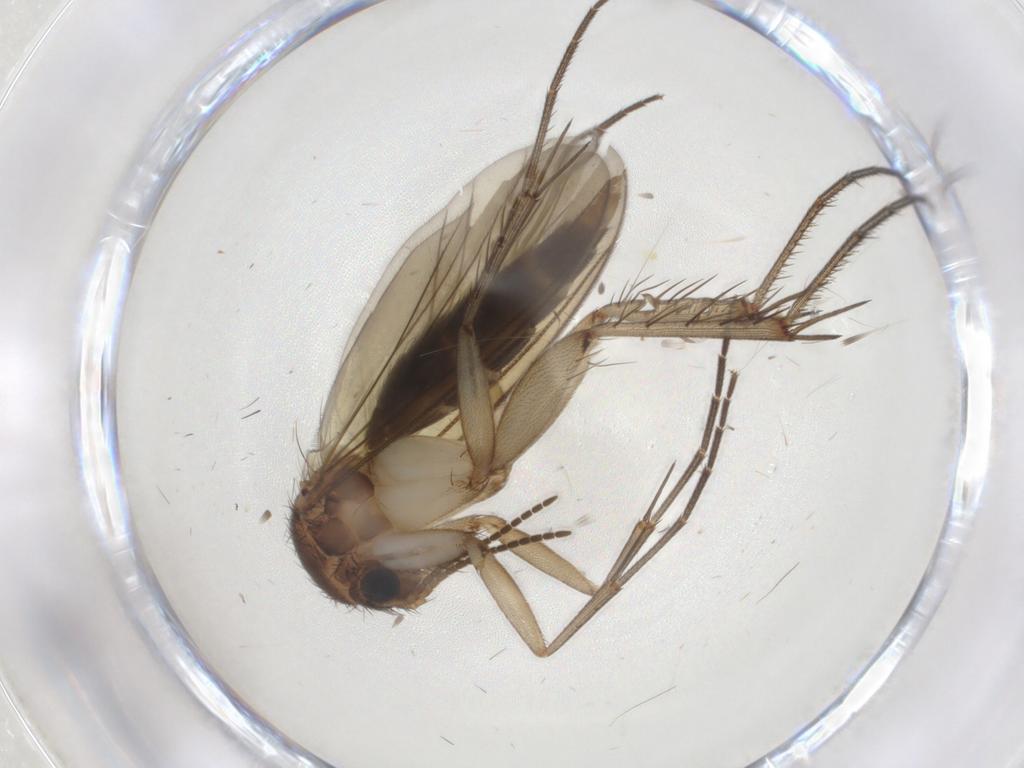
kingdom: Animalia
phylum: Arthropoda
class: Insecta
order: Diptera
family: Mycetophilidae
